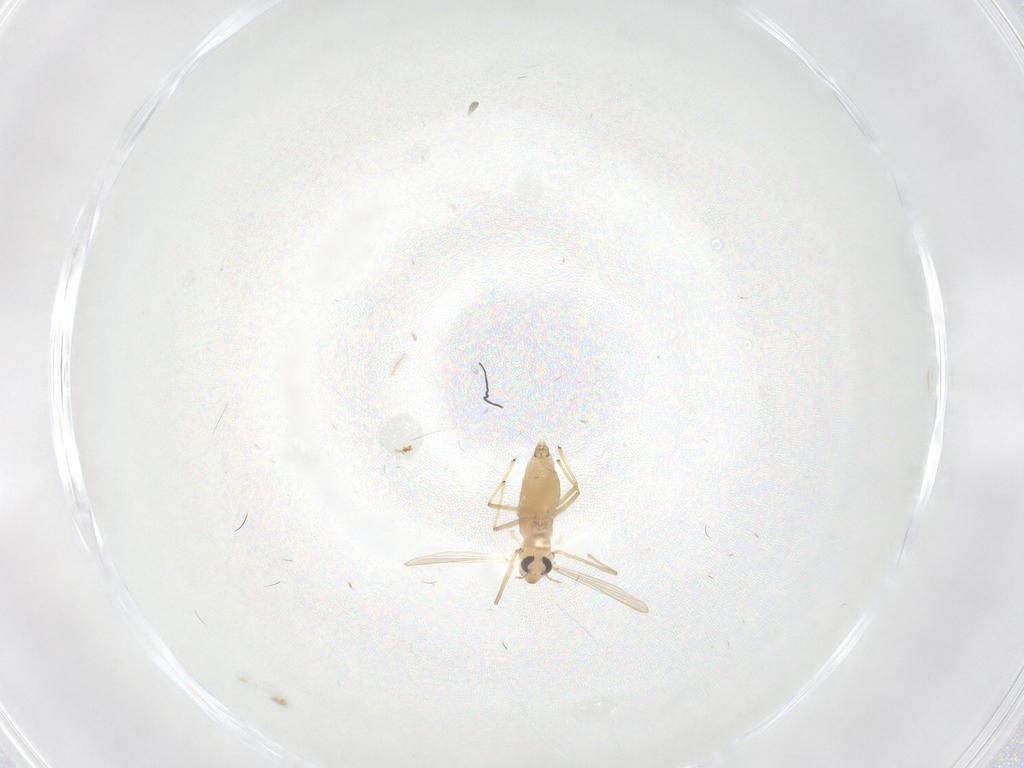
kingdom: Animalia
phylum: Arthropoda
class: Insecta
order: Diptera
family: Chironomidae
